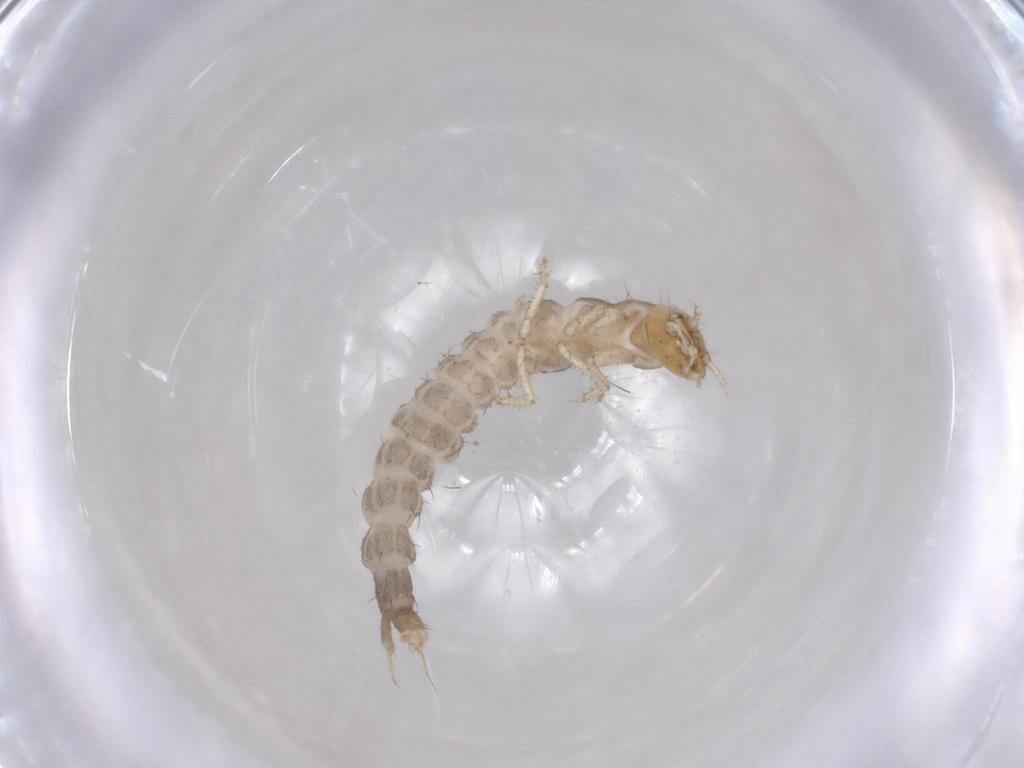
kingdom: Animalia
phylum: Arthropoda
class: Insecta
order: Coleoptera
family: Carabidae
